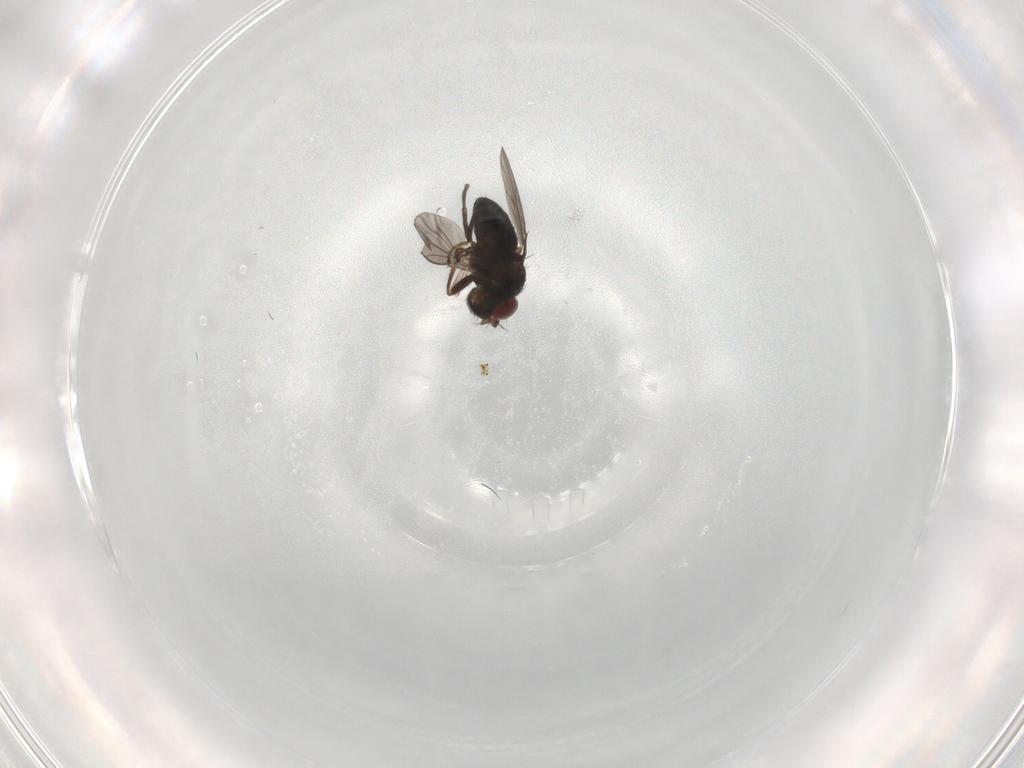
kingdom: Animalia
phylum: Arthropoda
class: Insecta
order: Diptera
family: Ephydridae
